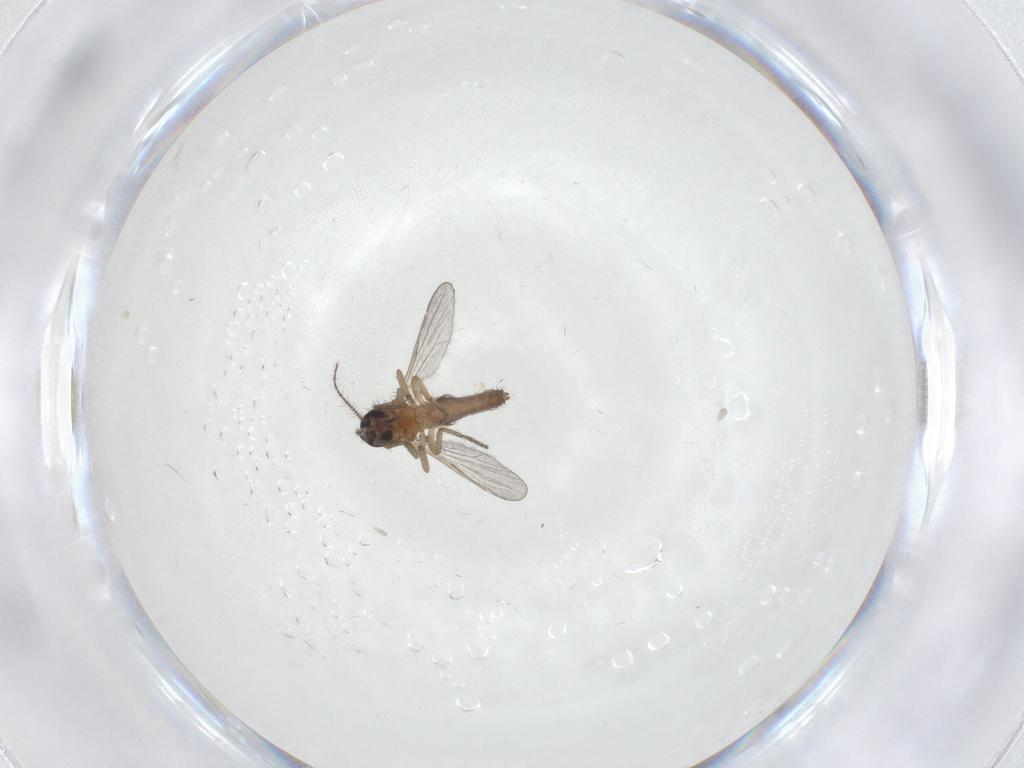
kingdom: Animalia
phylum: Arthropoda
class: Insecta
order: Diptera
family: Ceratopogonidae
